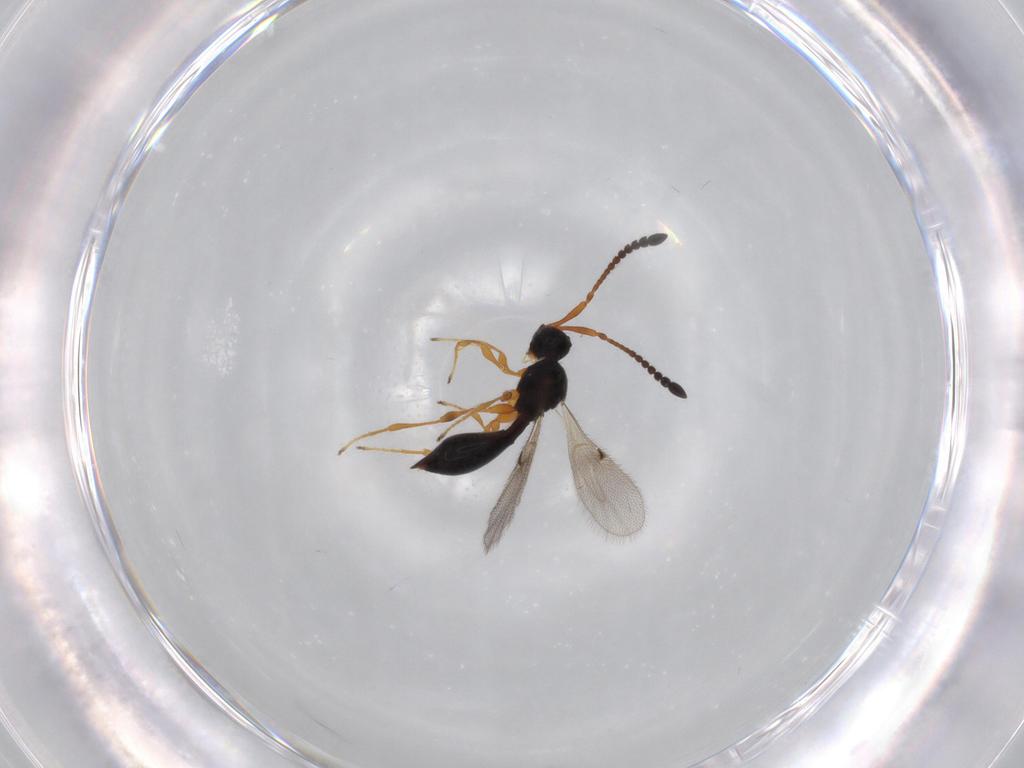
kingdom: Animalia
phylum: Arthropoda
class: Insecta
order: Hymenoptera
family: Diapriidae
